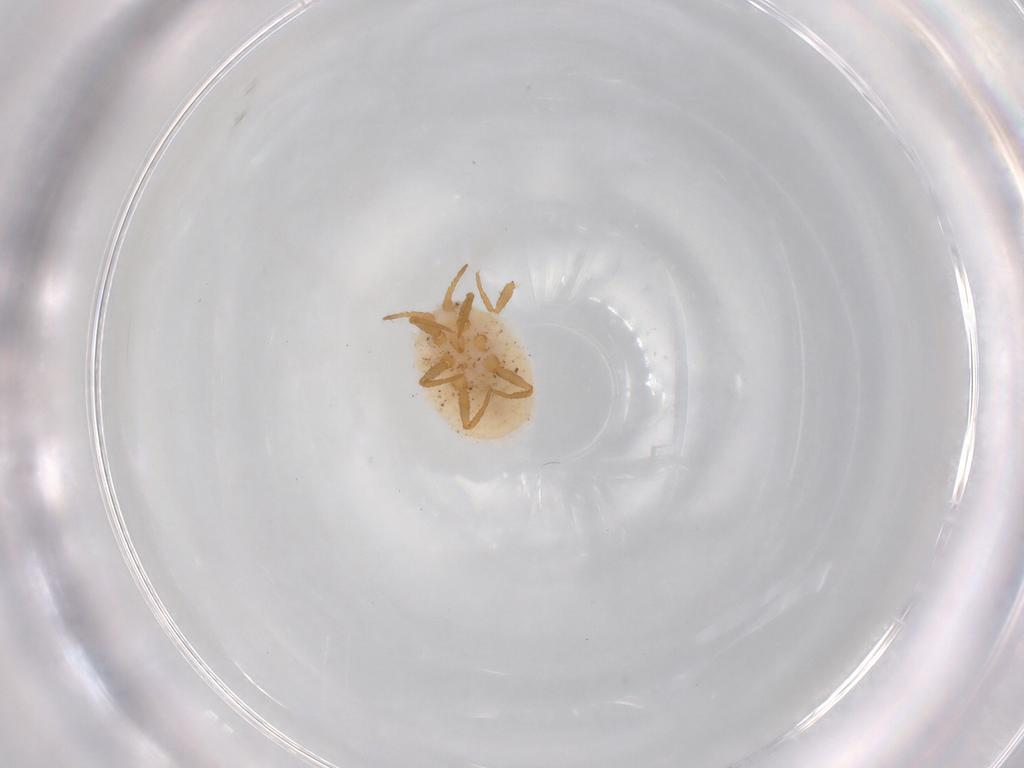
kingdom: Animalia
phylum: Arthropoda
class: Insecta
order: Hemiptera
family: Ortheziidae
